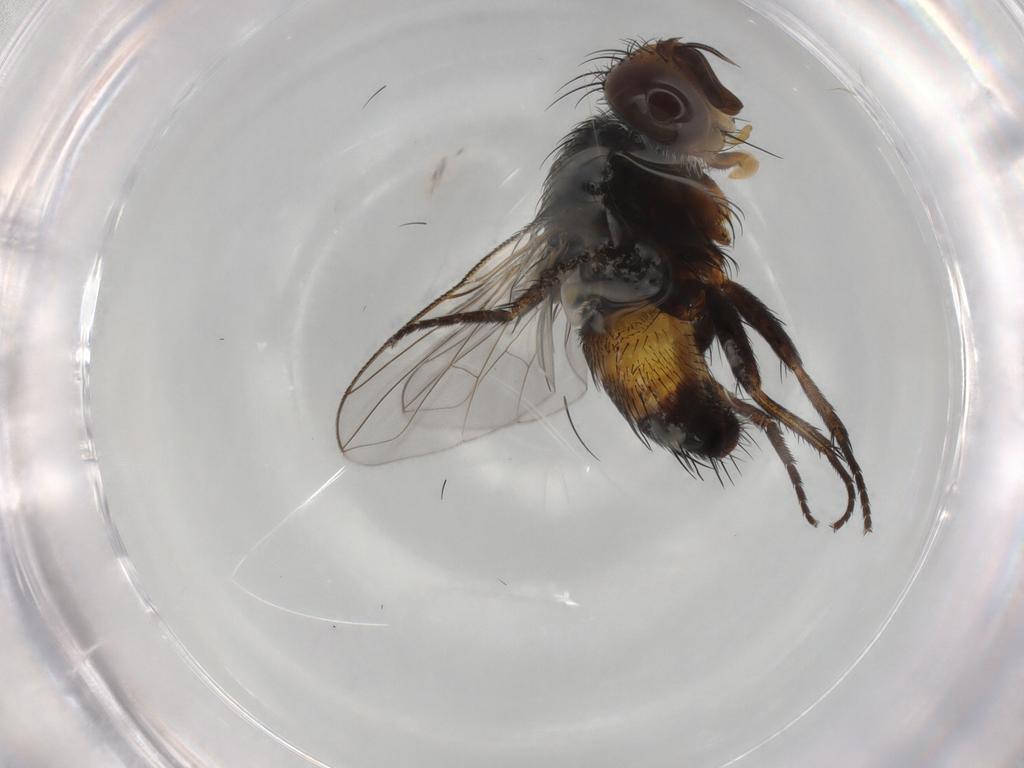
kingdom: Animalia
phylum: Arthropoda
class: Insecta
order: Diptera
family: Tachinidae
